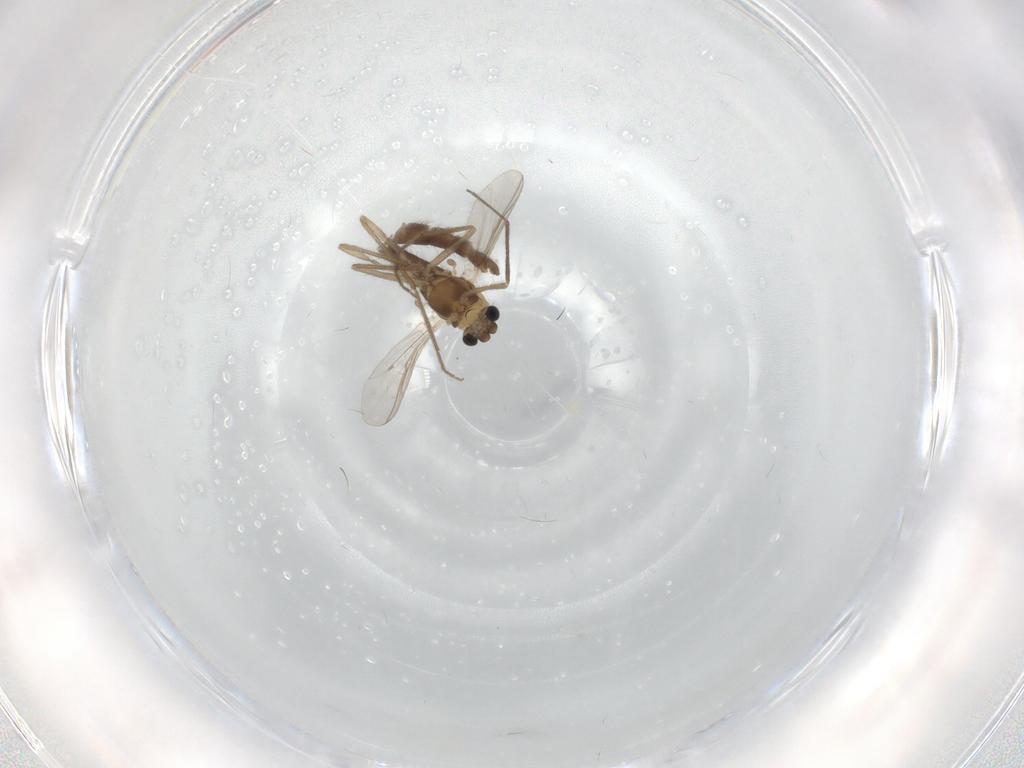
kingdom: Animalia
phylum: Arthropoda
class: Insecta
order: Diptera
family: Chironomidae
